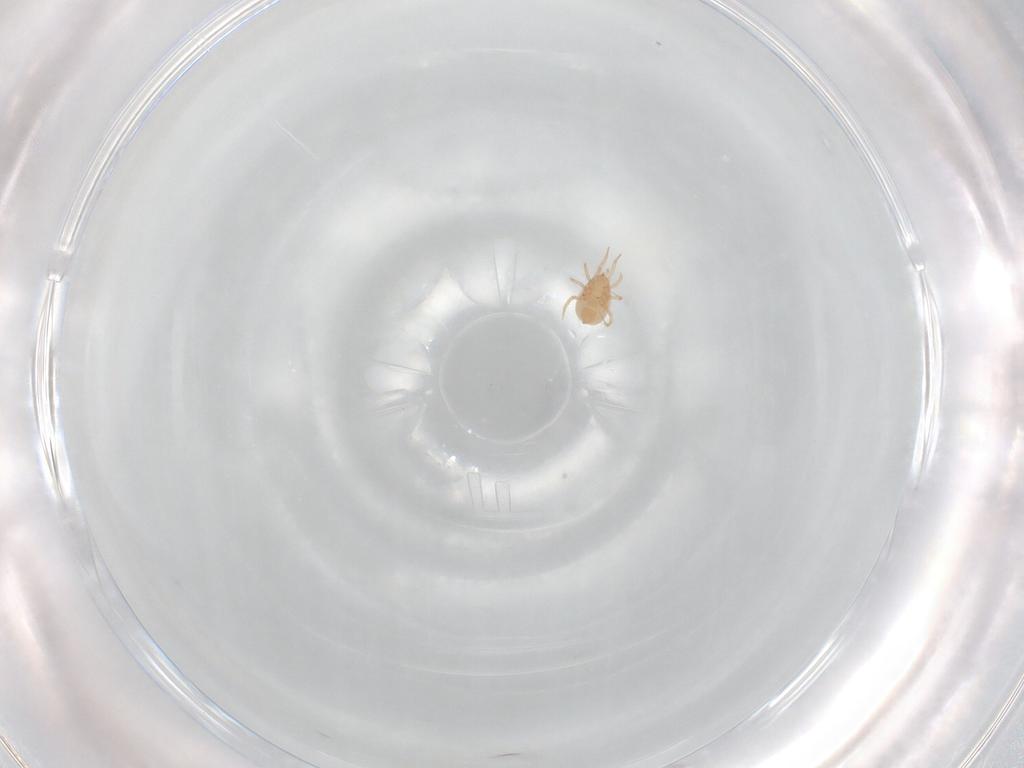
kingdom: Animalia
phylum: Arthropoda
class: Arachnida
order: Mesostigmata
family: Phytoseiidae
